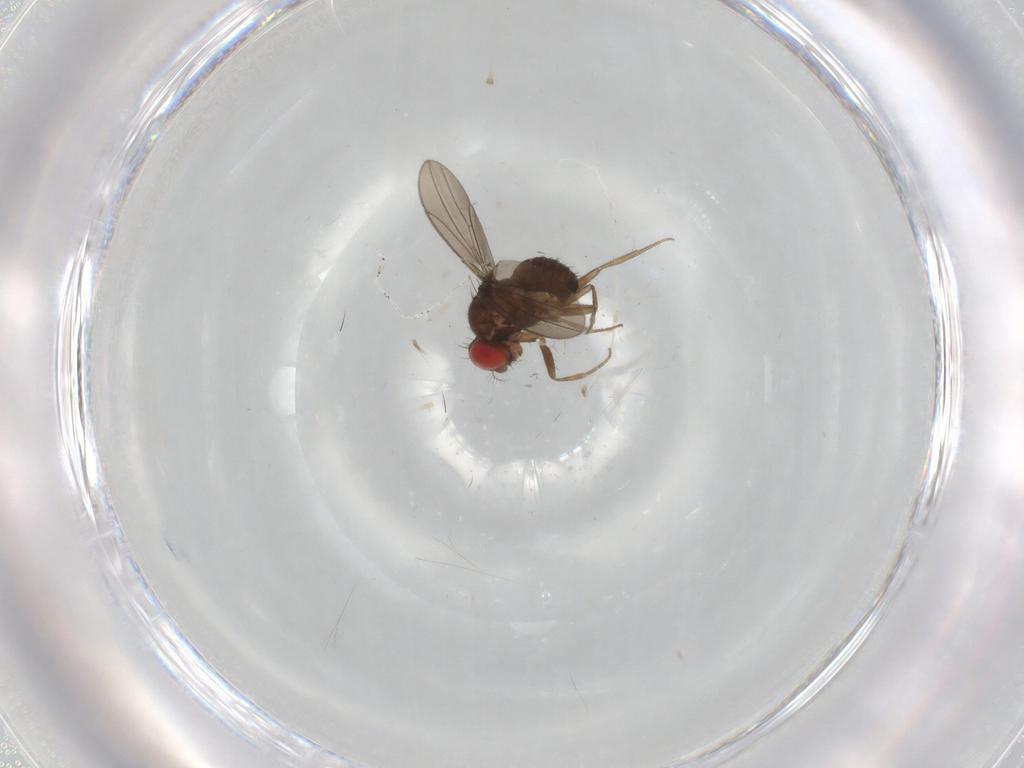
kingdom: Animalia
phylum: Arthropoda
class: Insecta
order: Diptera
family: Drosophilidae
